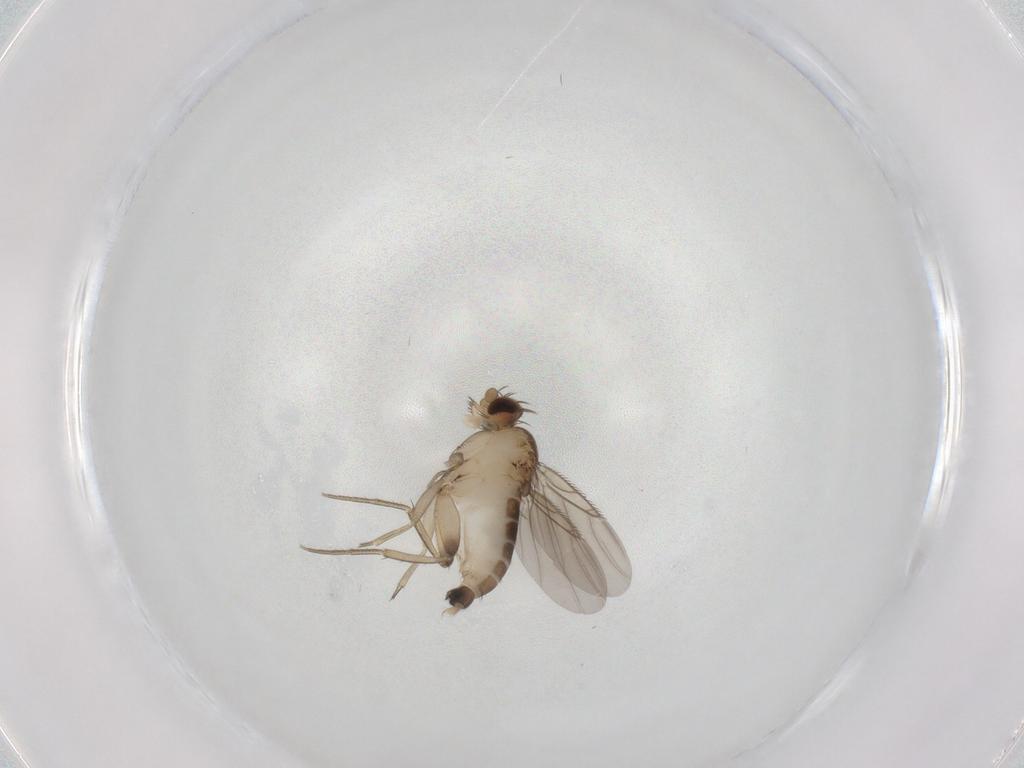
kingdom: Animalia
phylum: Arthropoda
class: Insecta
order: Diptera
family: Phoridae
